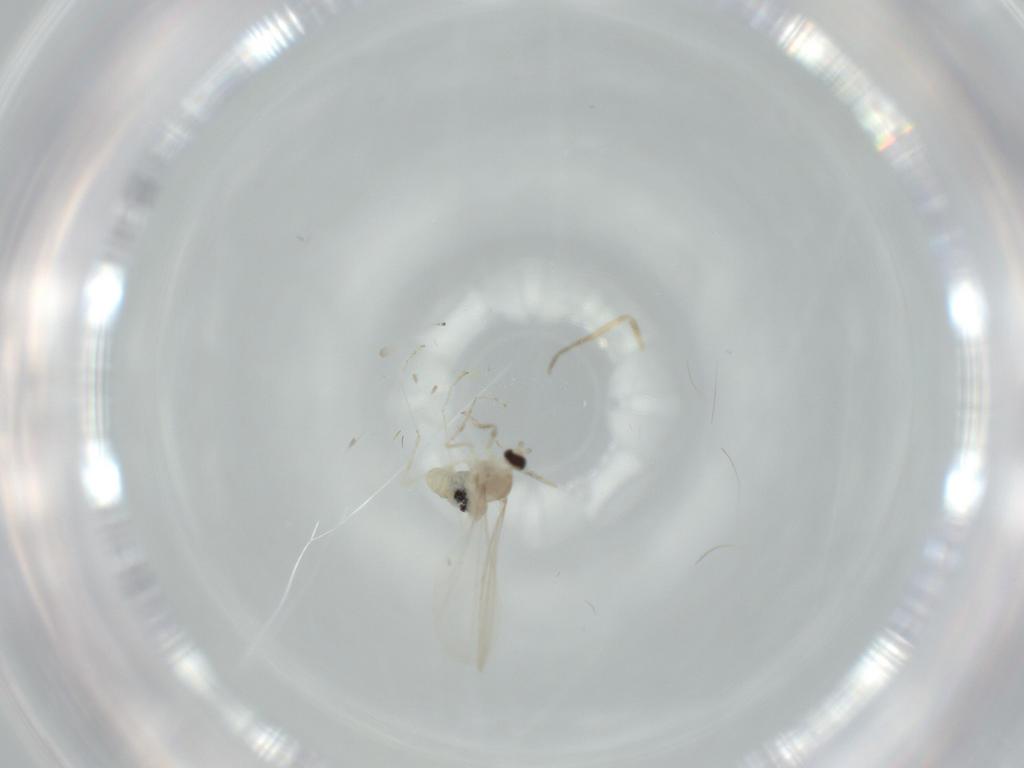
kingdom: Animalia
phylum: Arthropoda
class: Insecta
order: Diptera
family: Cecidomyiidae
